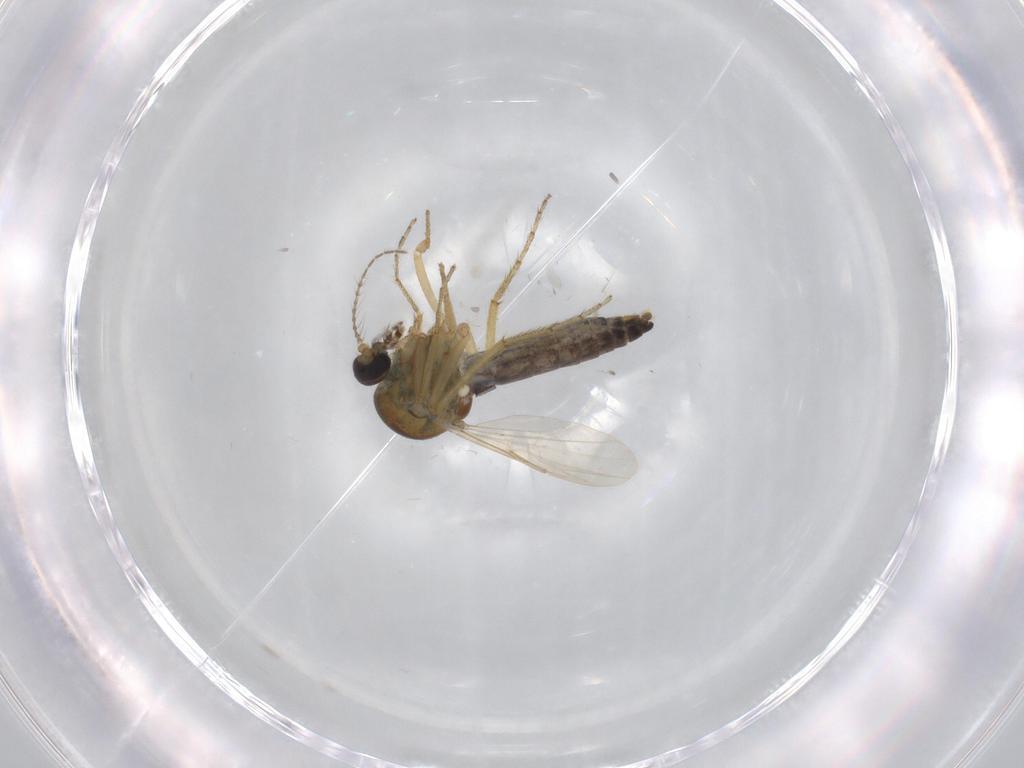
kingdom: Animalia
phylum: Arthropoda
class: Insecta
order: Diptera
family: Ceratopogonidae
